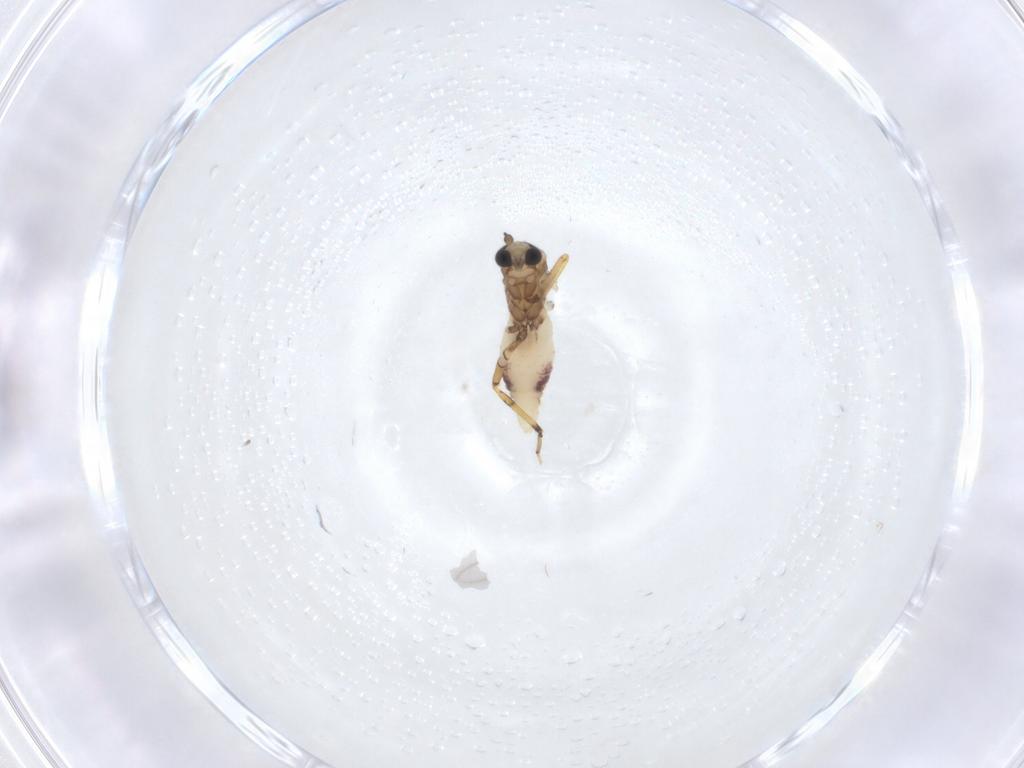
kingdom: Animalia
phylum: Arthropoda
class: Insecta
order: Diptera
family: Ceratopogonidae
